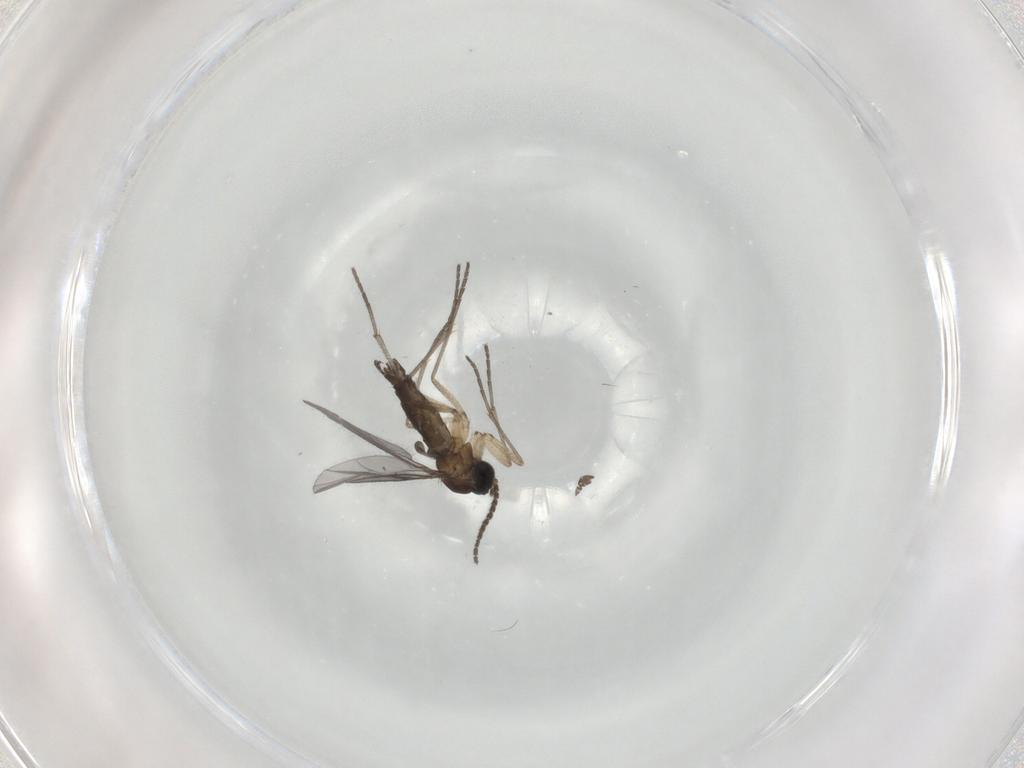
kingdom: Animalia
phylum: Arthropoda
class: Insecta
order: Diptera
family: Sciaridae
